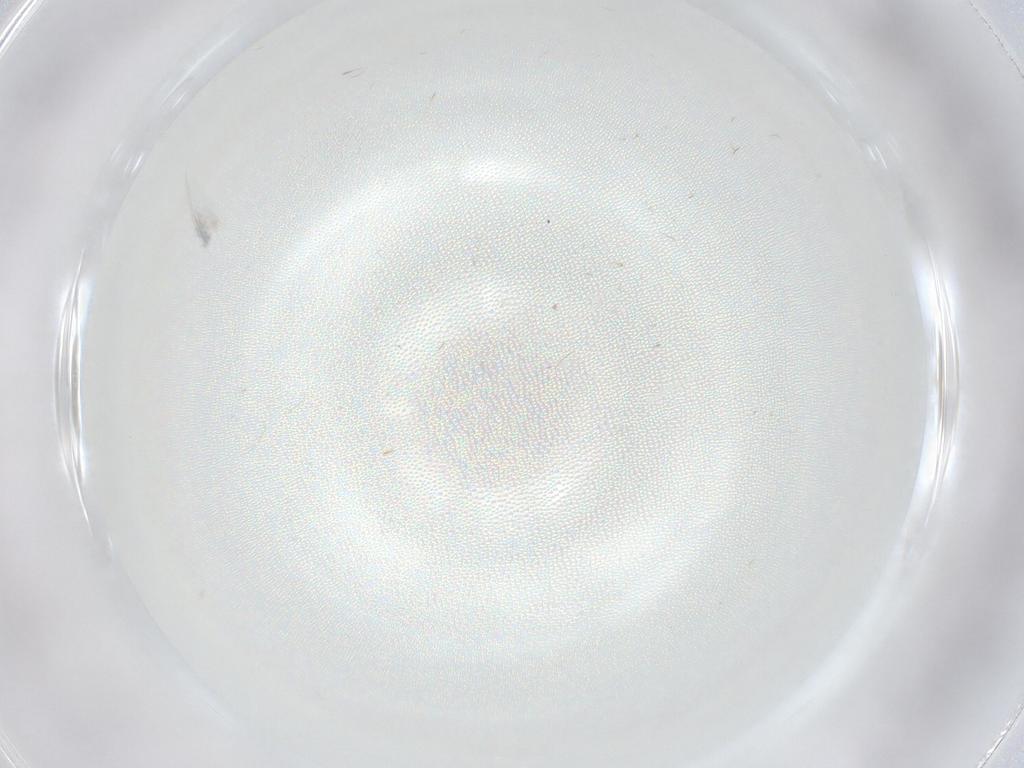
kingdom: Animalia
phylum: Arthropoda
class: Insecta
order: Diptera
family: Cecidomyiidae
